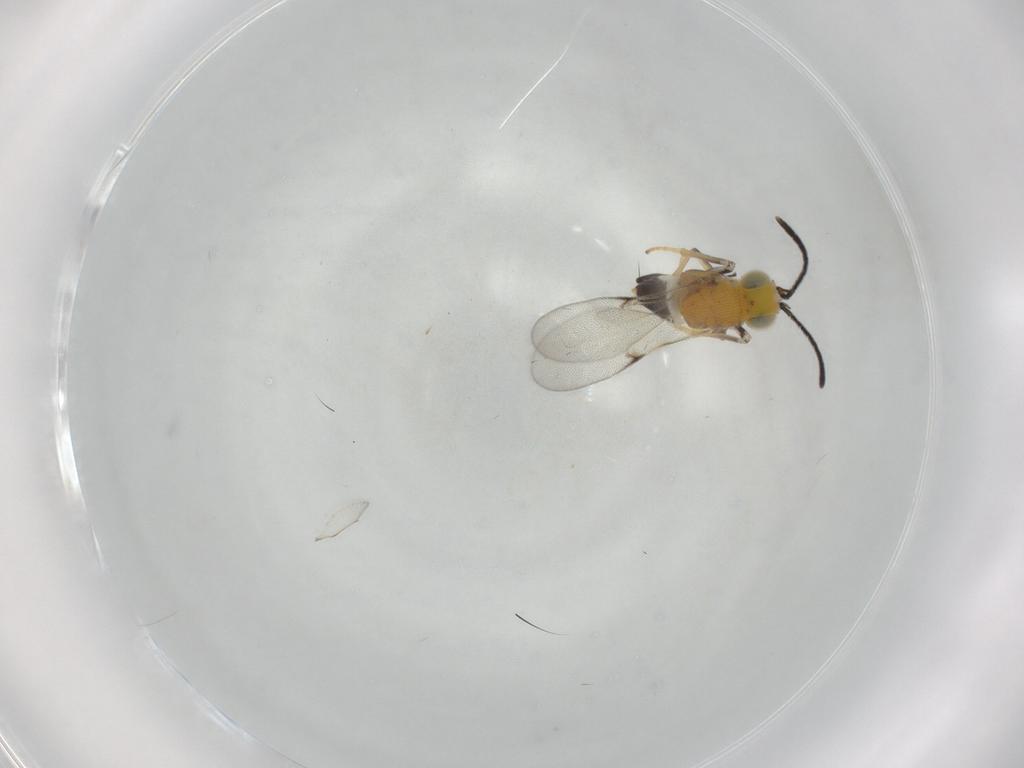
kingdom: Animalia
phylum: Arthropoda
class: Insecta
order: Hymenoptera
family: Encyrtidae
